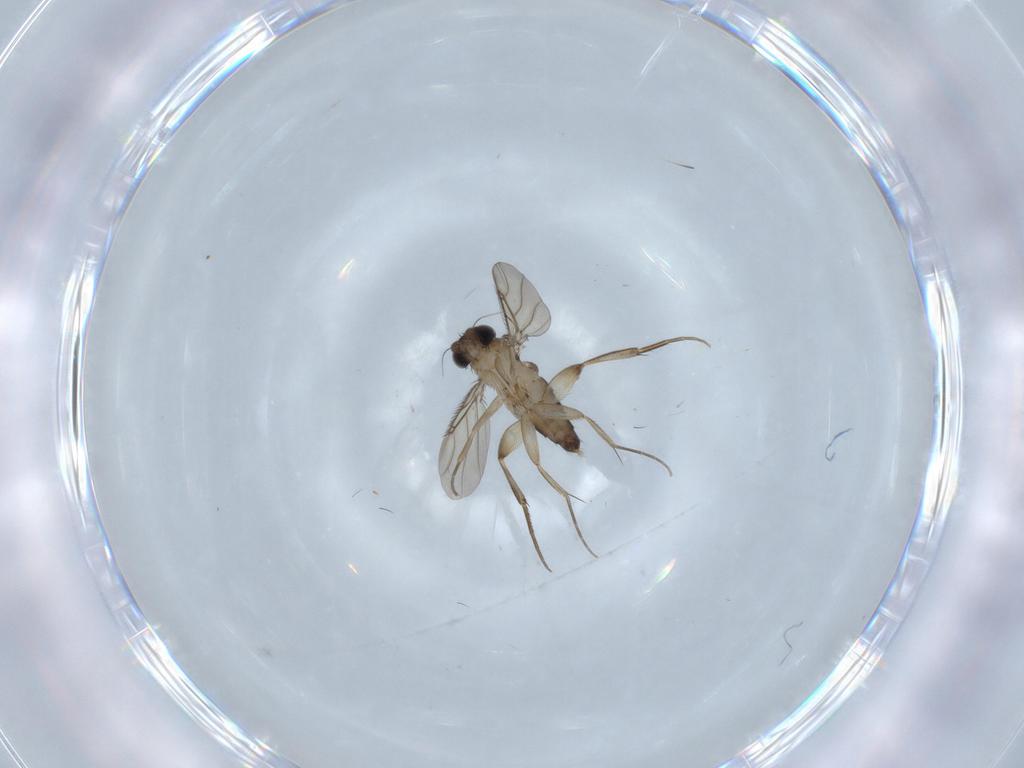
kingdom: Animalia
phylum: Arthropoda
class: Insecta
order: Diptera
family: Phoridae
